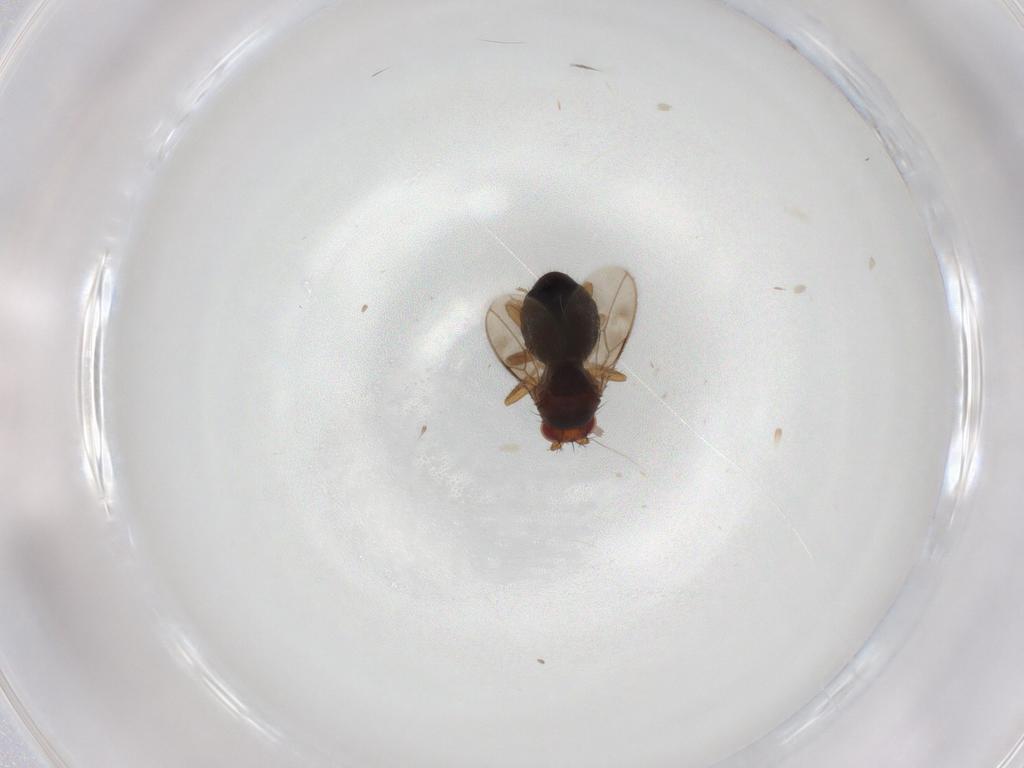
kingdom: Animalia
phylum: Arthropoda
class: Insecta
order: Diptera
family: Sphaeroceridae
